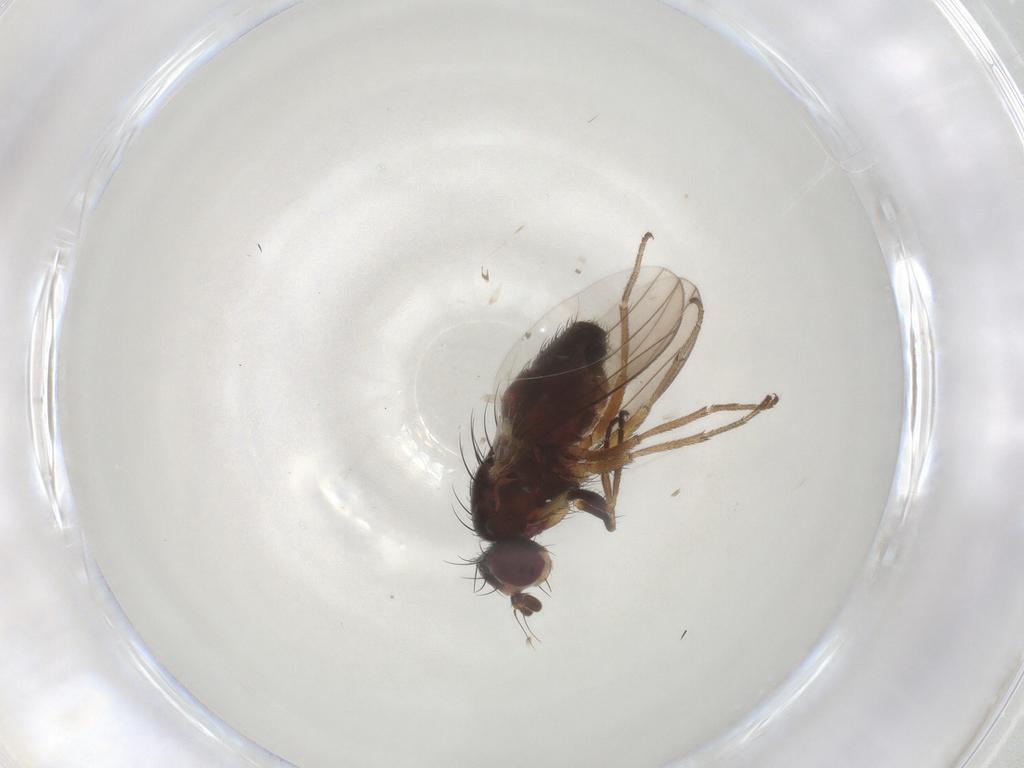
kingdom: Animalia
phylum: Arthropoda
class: Insecta
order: Diptera
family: Heleomyzidae
